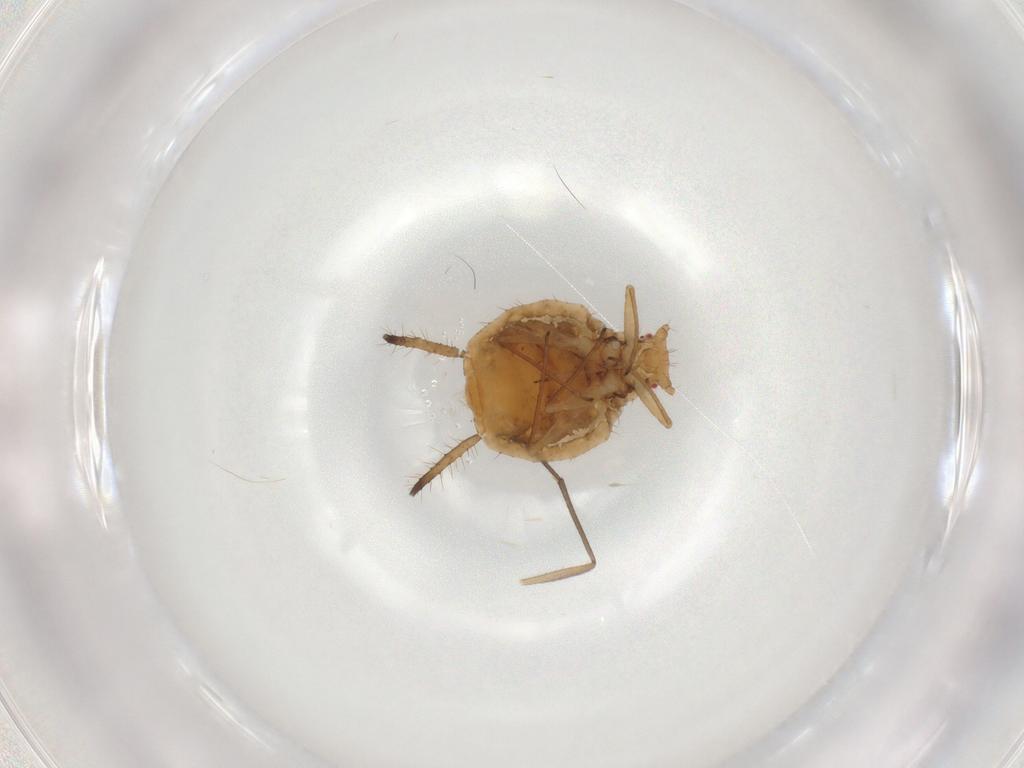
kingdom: Animalia
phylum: Arthropoda
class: Insecta
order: Hemiptera
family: Aphididae
